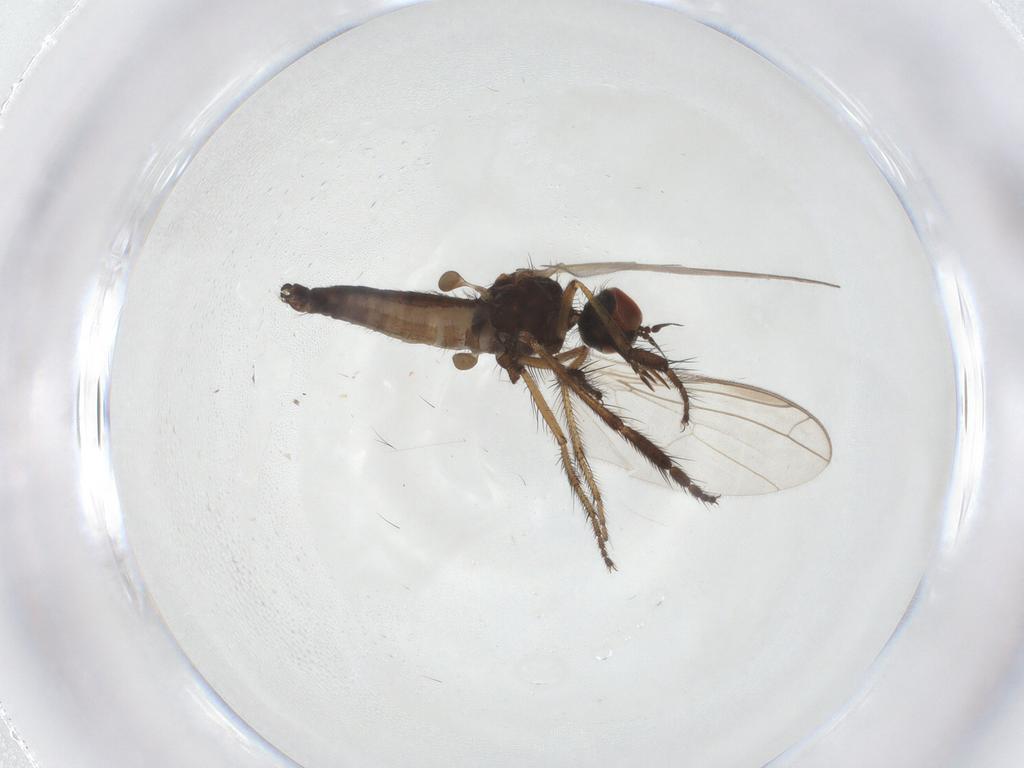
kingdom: Animalia
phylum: Arthropoda
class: Insecta
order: Diptera
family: Empididae
